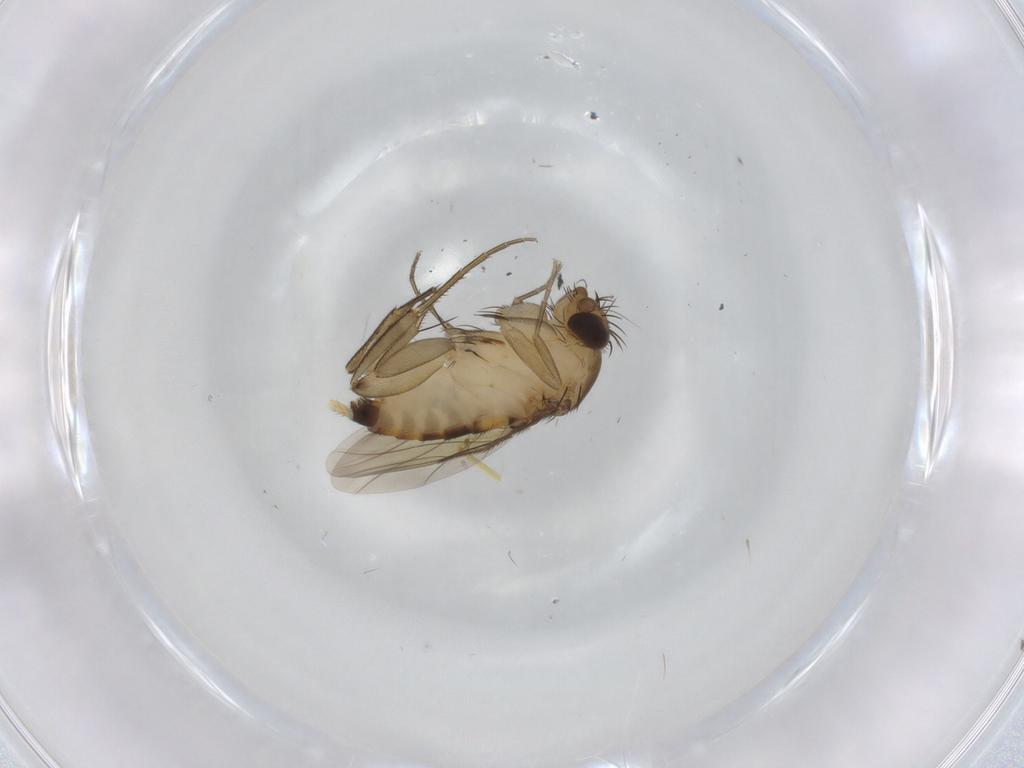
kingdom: Animalia
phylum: Arthropoda
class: Insecta
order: Diptera
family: Phoridae
